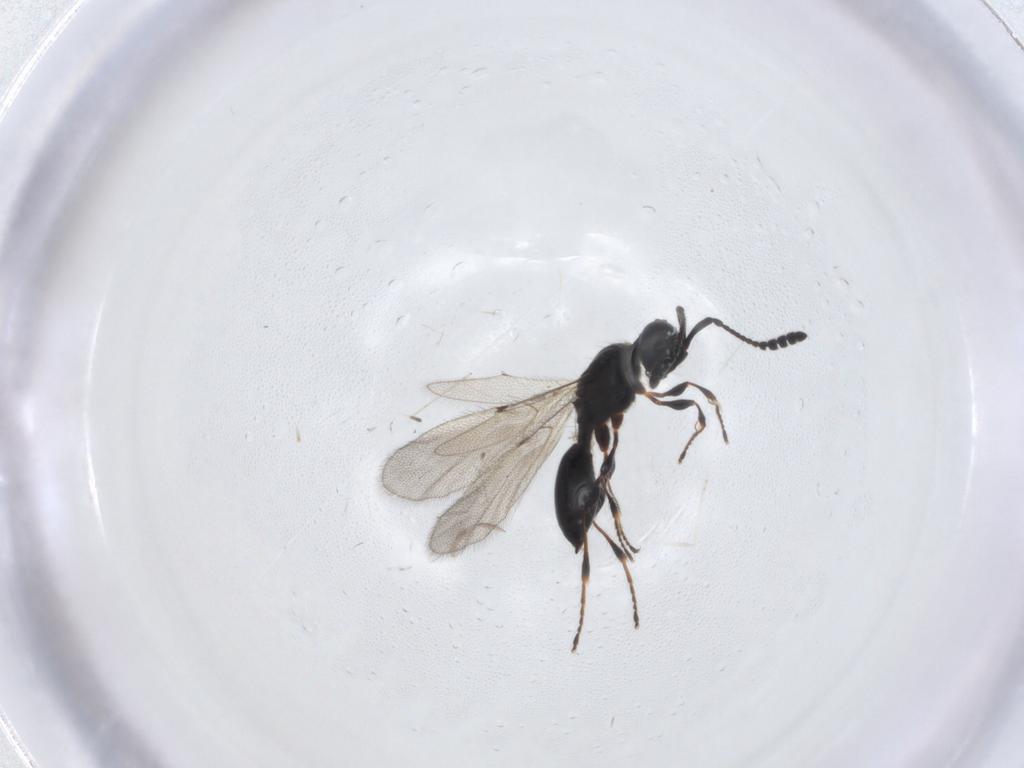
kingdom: Animalia
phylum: Arthropoda
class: Insecta
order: Hymenoptera
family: Diapriidae
